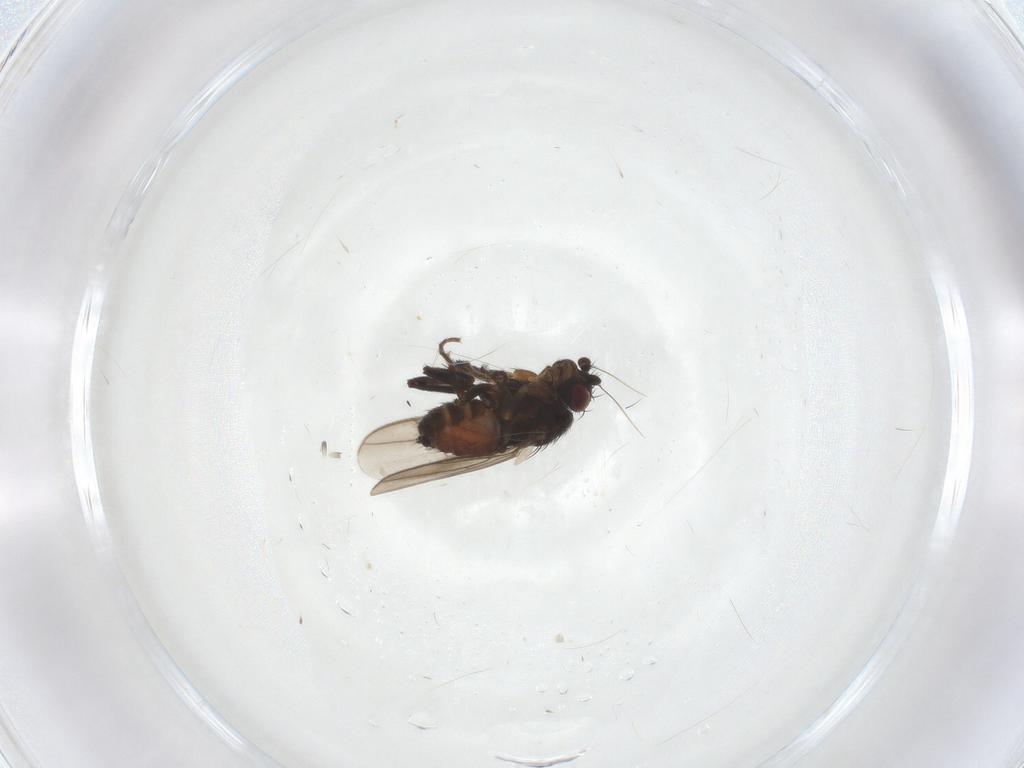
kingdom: Animalia
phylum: Arthropoda
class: Insecta
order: Diptera
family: Sphaeroceridae
